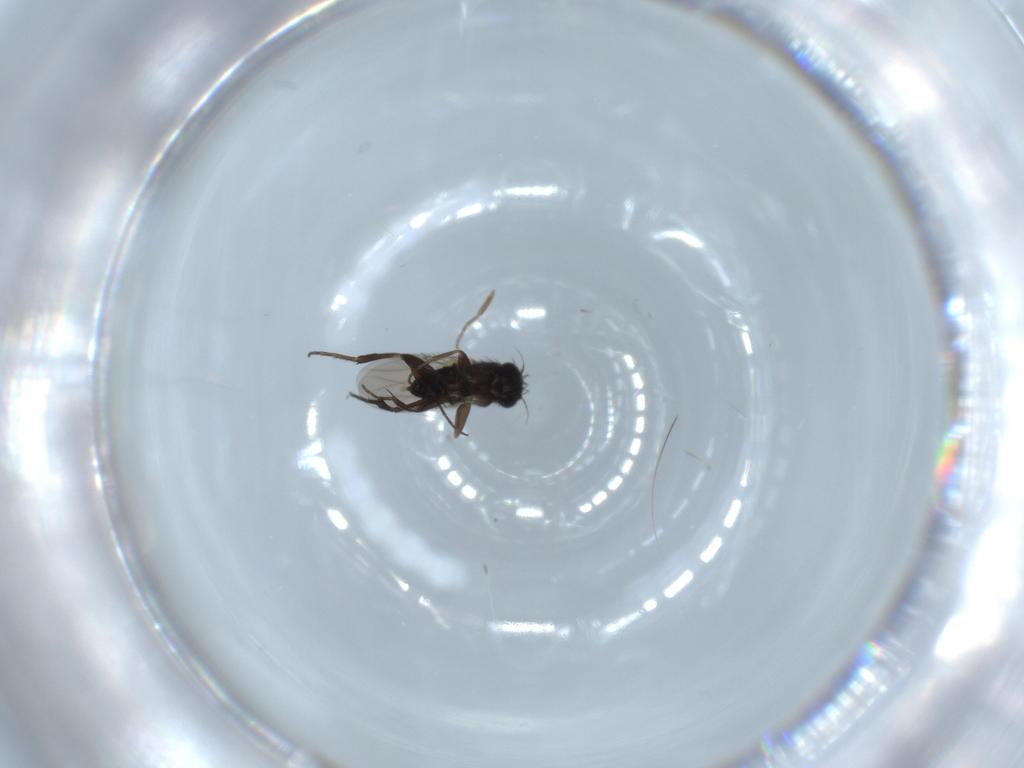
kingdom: Animalia
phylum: Arthropoda
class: Insecta
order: Diptera
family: Phoridae
